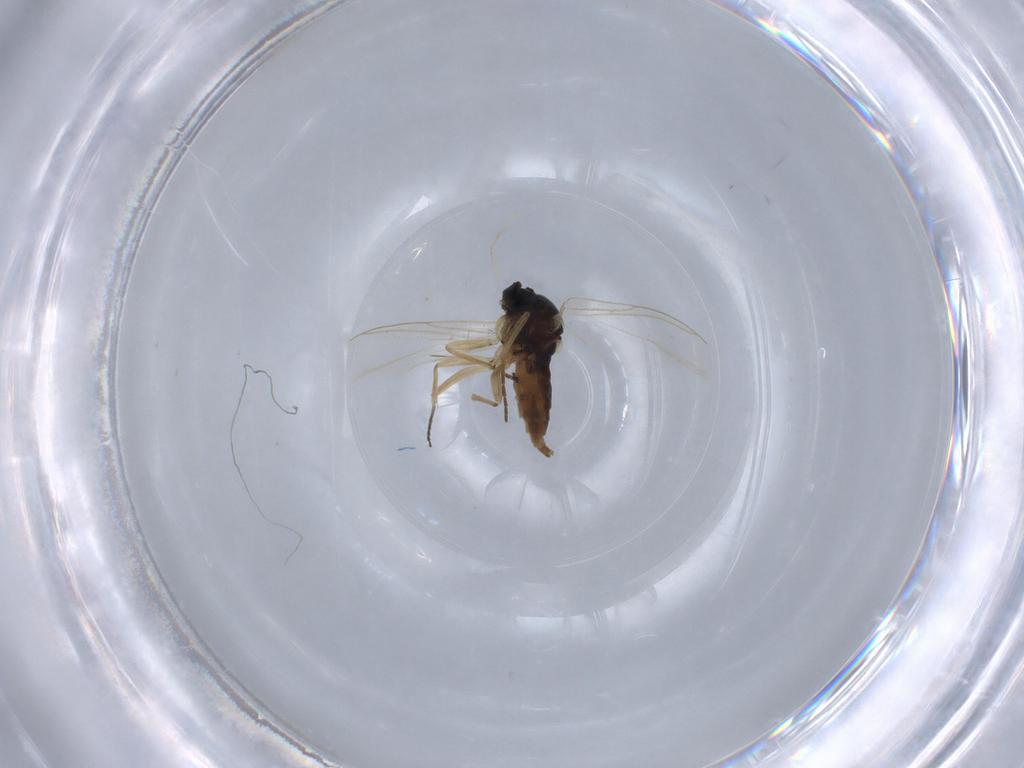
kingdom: Animalia
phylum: Arthropoda
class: Insecta
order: Diptera
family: Sciaridae
